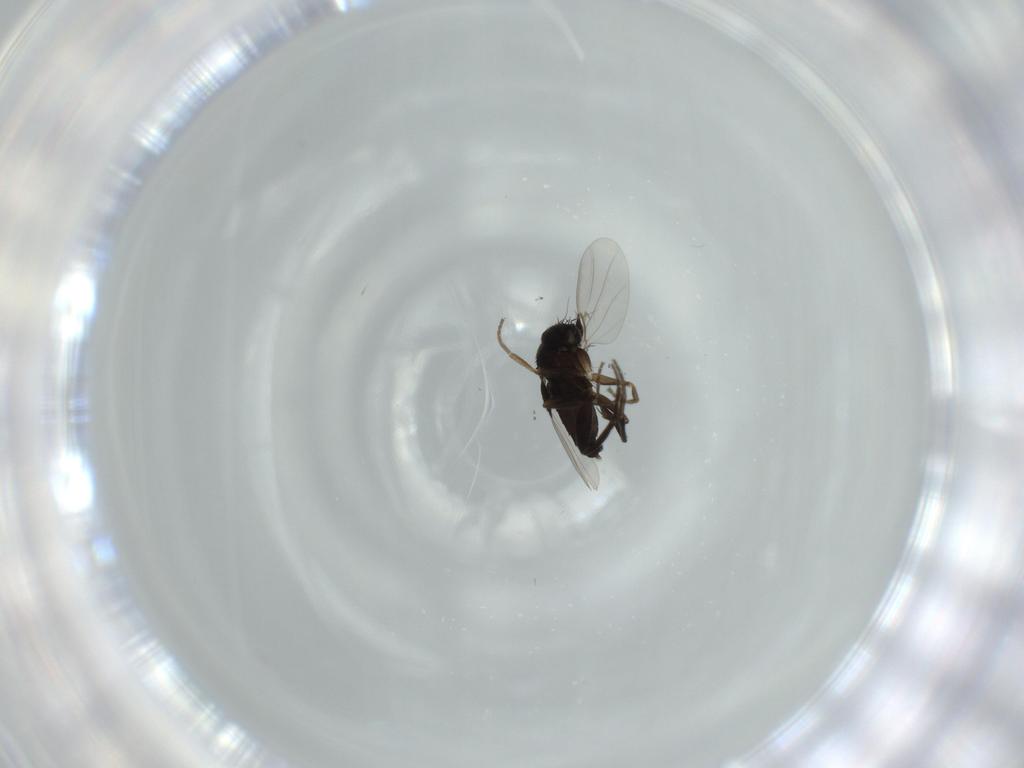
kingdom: Animalia
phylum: Arthropoda
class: Insecta
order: Diptera
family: Phoridae
